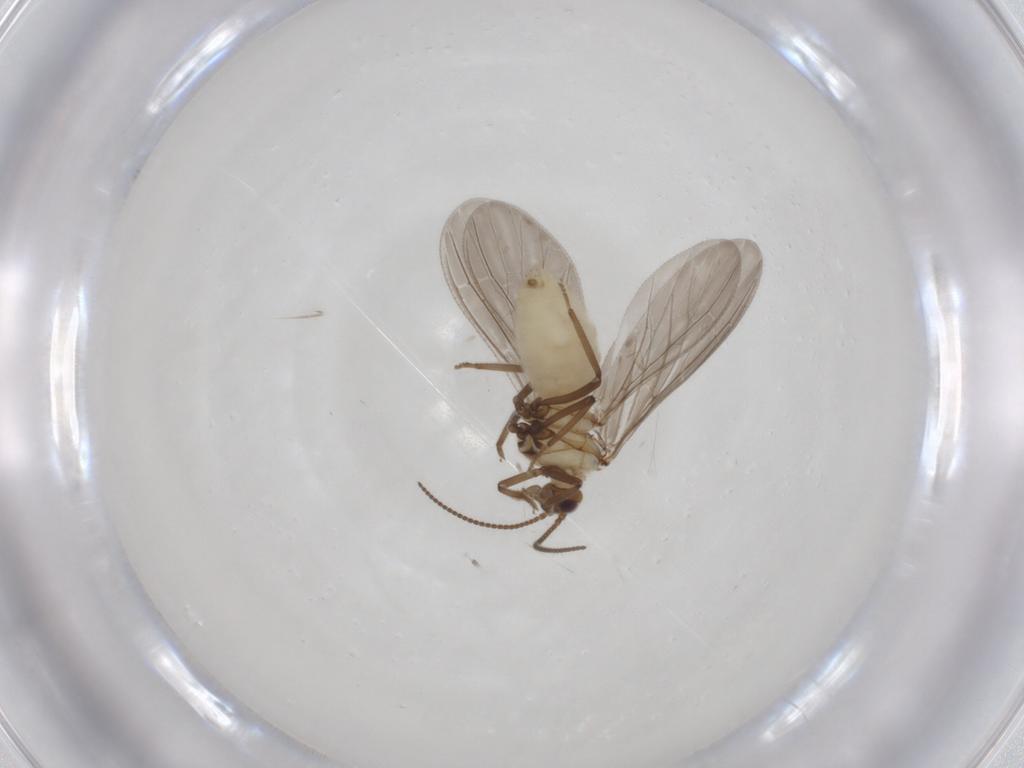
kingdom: Animalia
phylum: Arthropoda
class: Insecta
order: Neuroptera
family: Coniopterygidae
